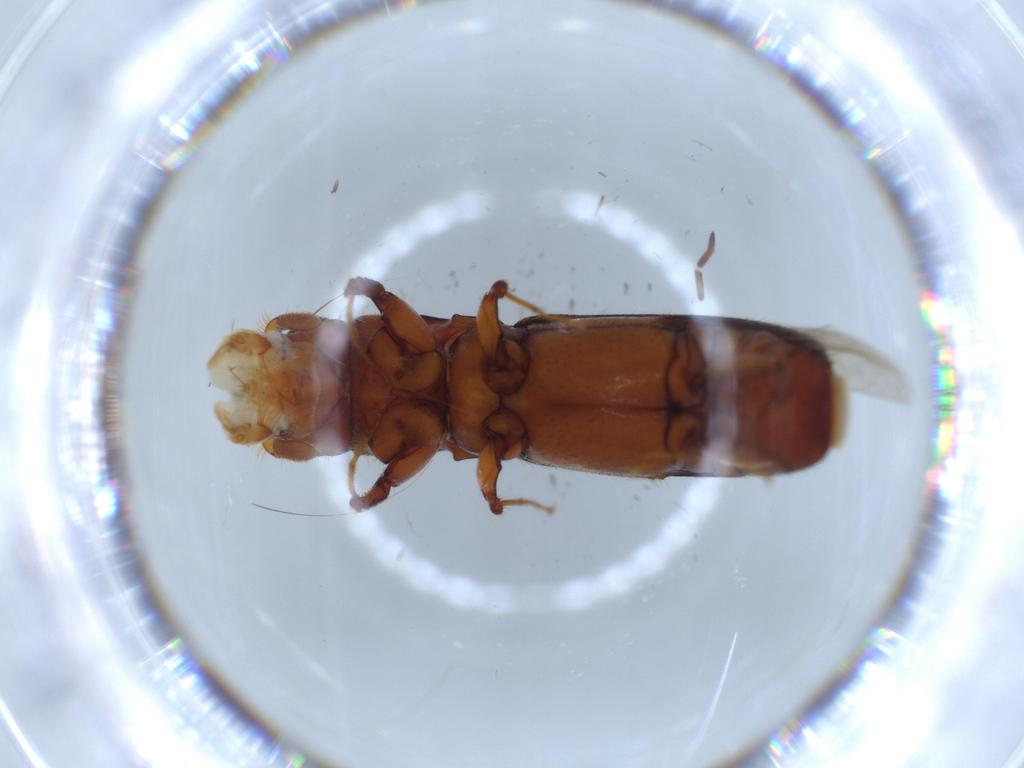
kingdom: Animalia
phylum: Arthropoda
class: Insecta
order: Coleoptera
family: Curculionidae
